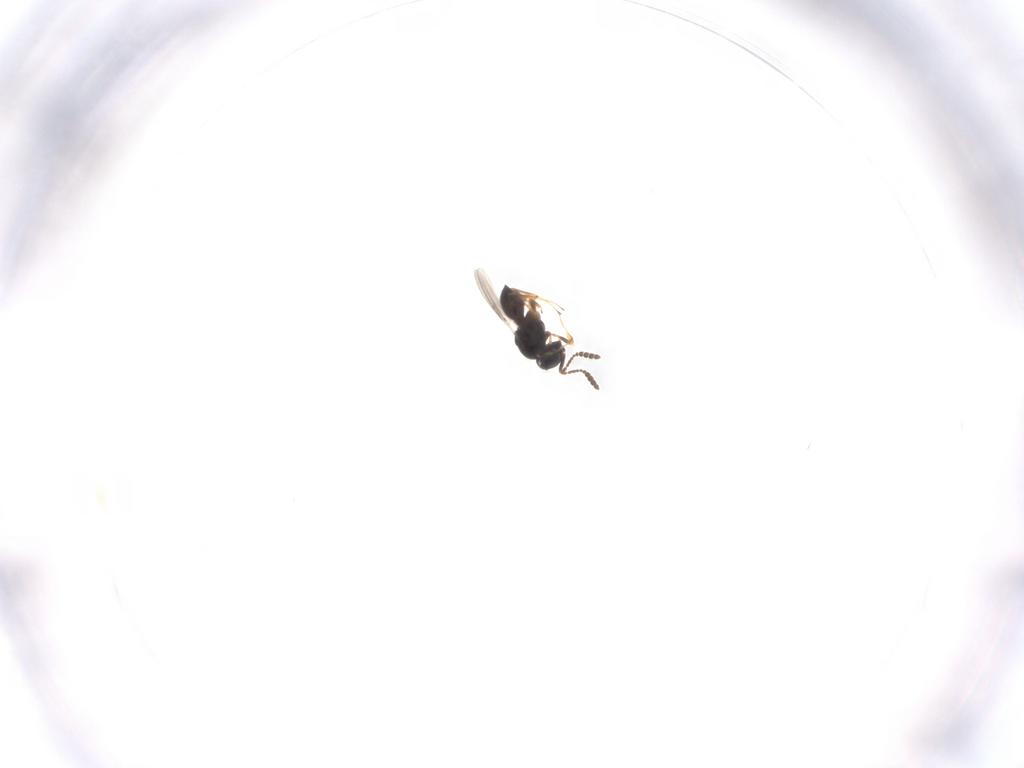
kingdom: Animalia
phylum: Arthropoda
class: Insecta
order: Hymenoptera
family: Scelionidae
